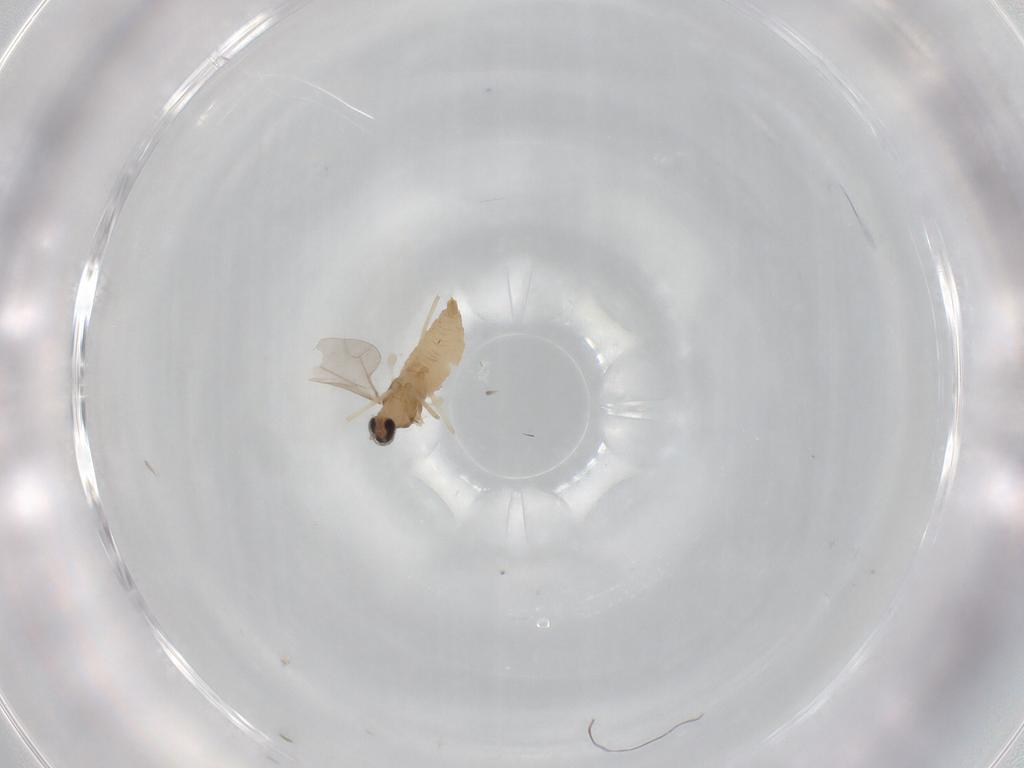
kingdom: Animalia
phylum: Arthropoda
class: Insecta
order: Diptera
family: Cecidomyiidae
